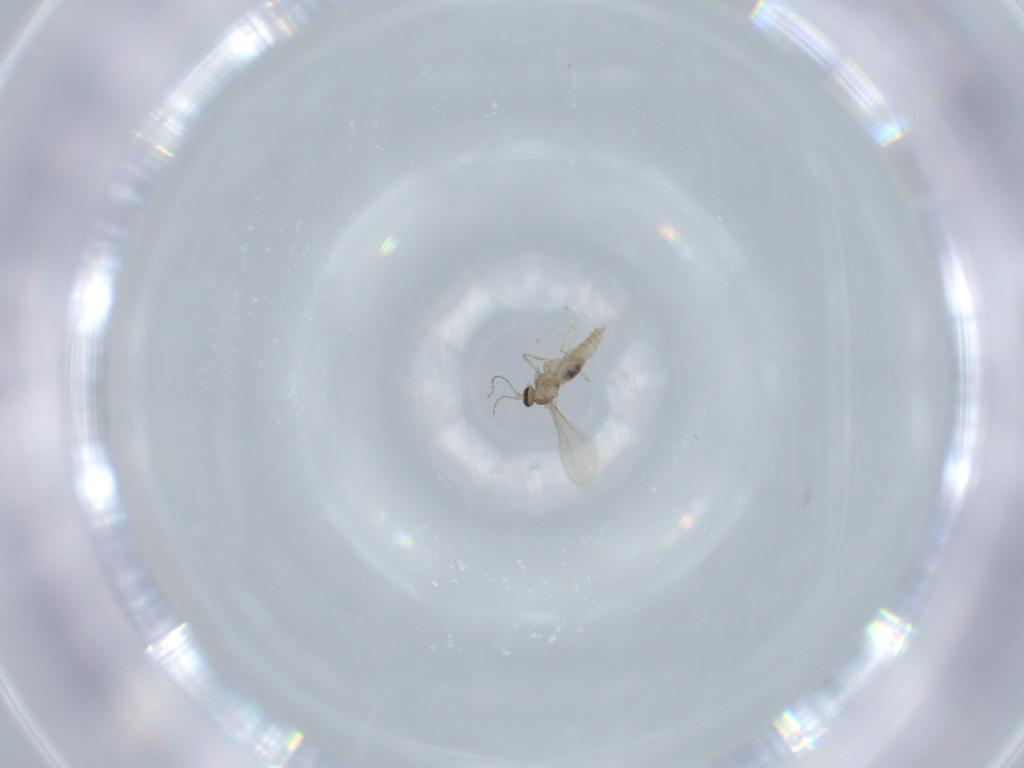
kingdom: Animalia
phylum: Arthropoda
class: Insecta
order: Diptera
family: Cecidomyiidae
